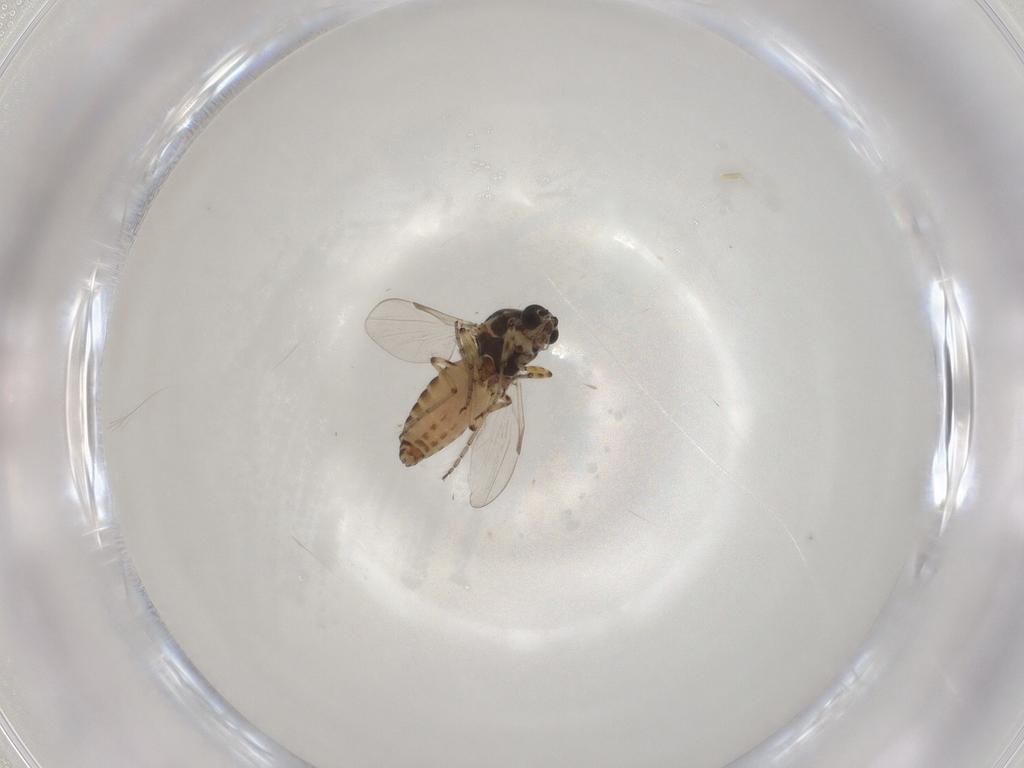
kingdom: Animalia
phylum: Arthropoda
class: Insecta
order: Diptera
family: Ceratopogonidae
